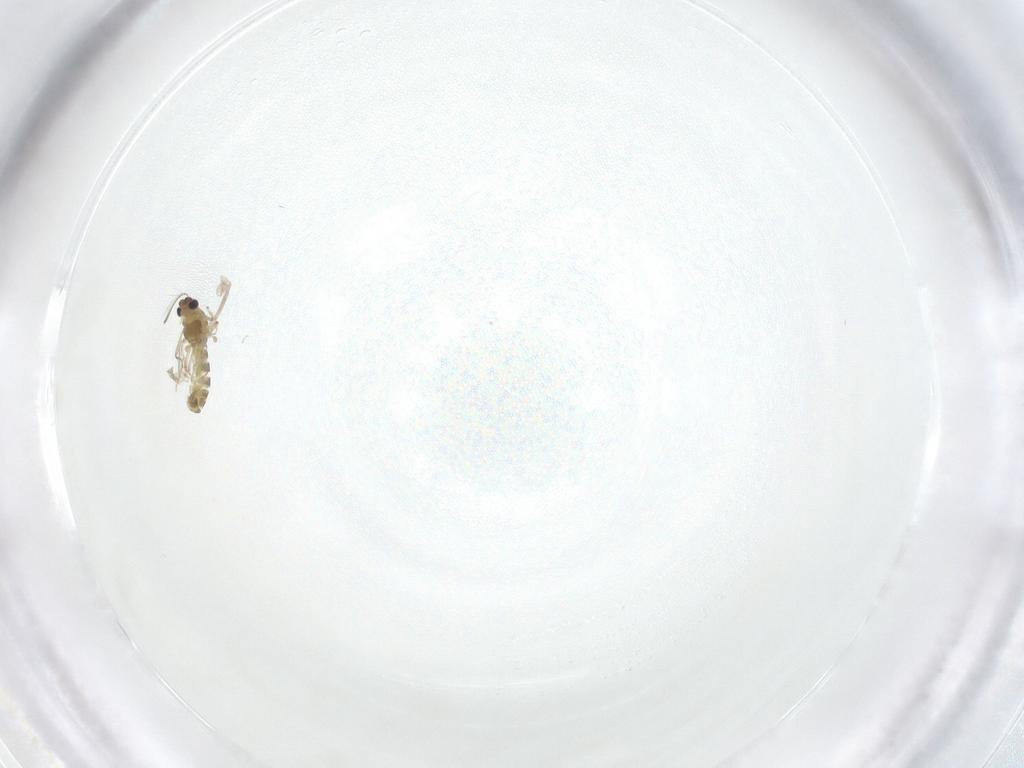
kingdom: Animalia
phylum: Arthropoda
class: Insecta
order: Diptera
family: Chironomidae
